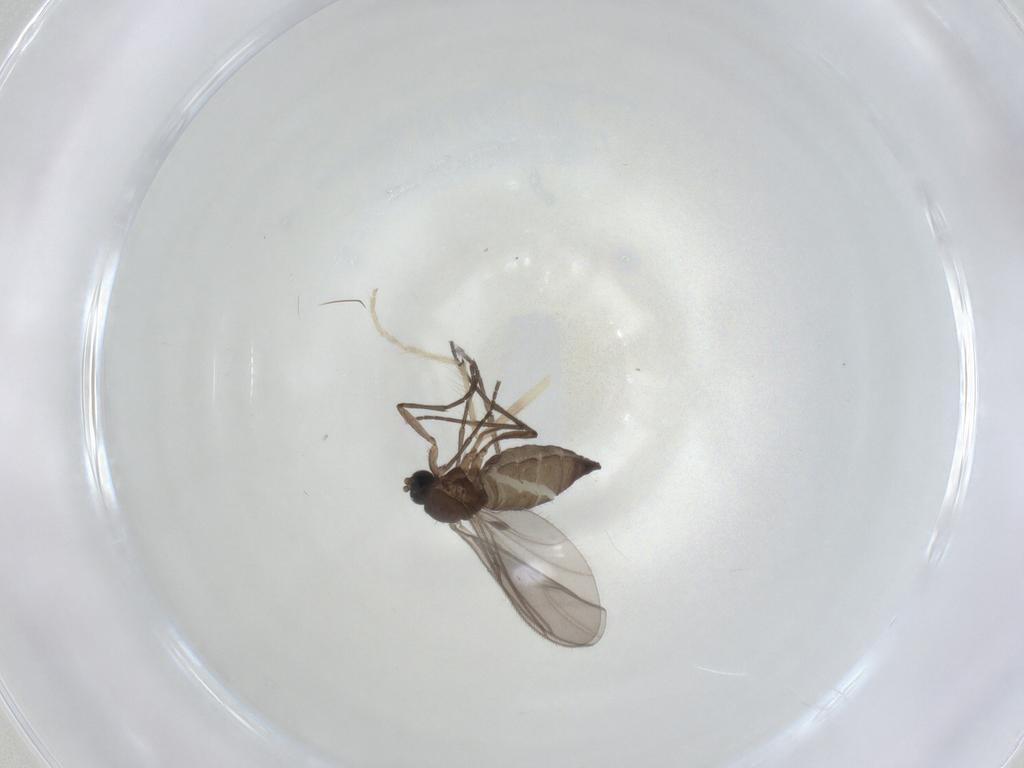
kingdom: Animalia
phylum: Arthropoda
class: Insecta
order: Diptera
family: Sciaridae
